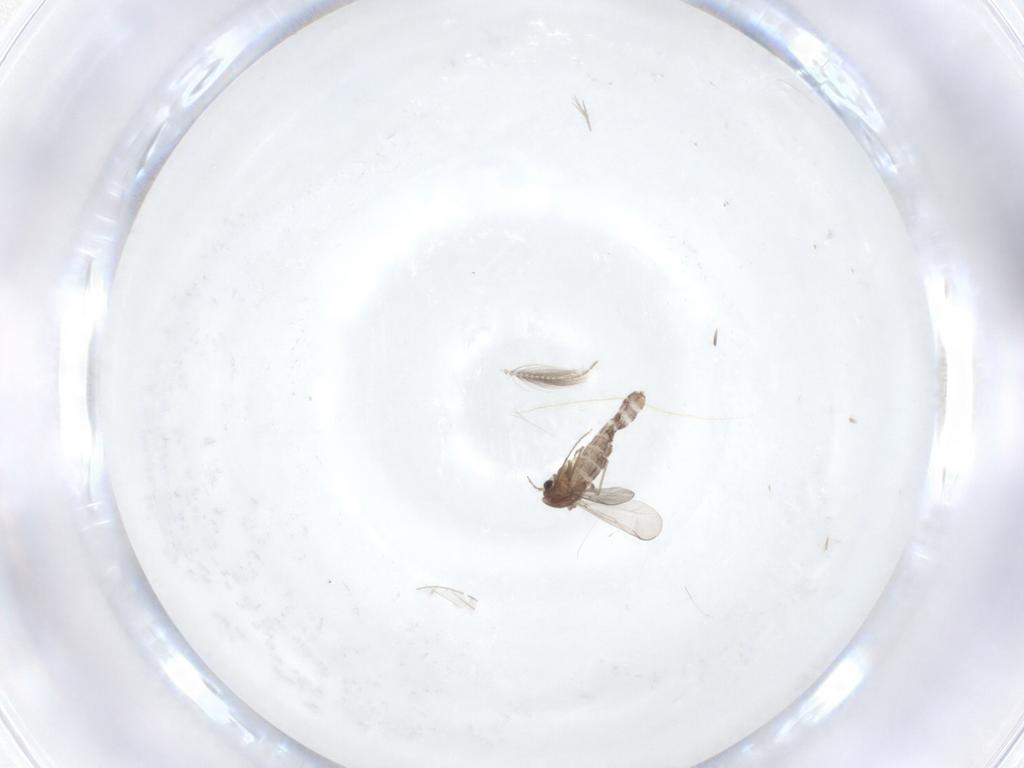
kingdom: Animalia
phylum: Arthropoda
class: Insecta
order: Diptera
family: Ceratopogonidae
